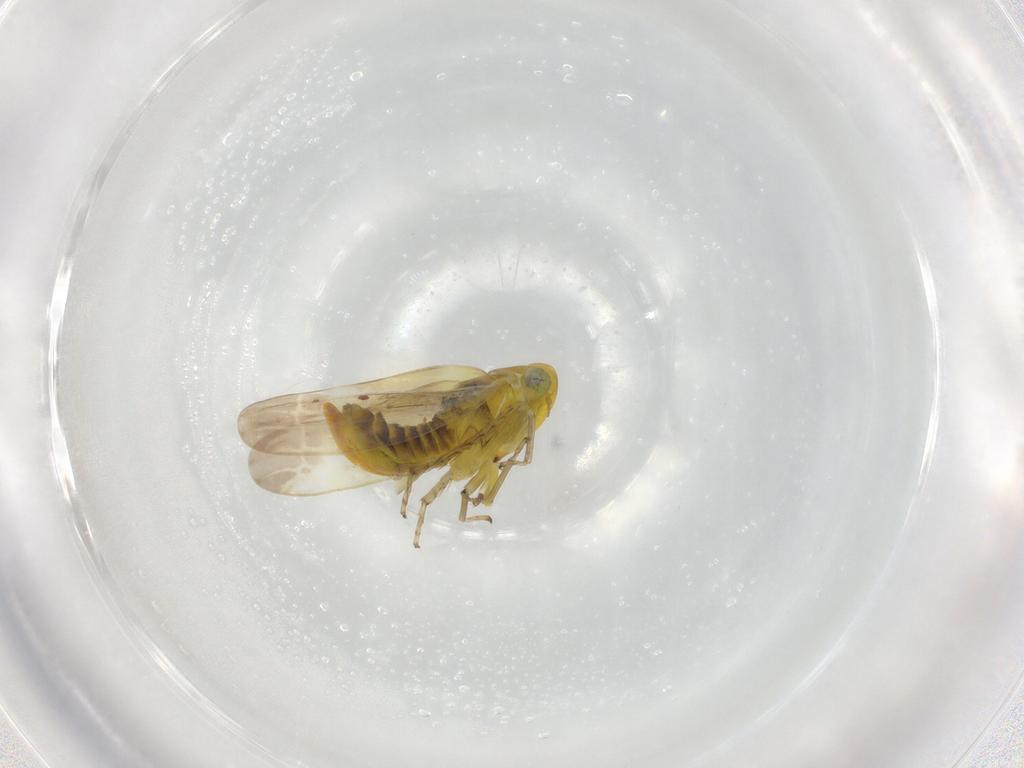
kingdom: Animalia
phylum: Arthropoda
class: Insecta
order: Hemiptera
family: Cicadellidae
